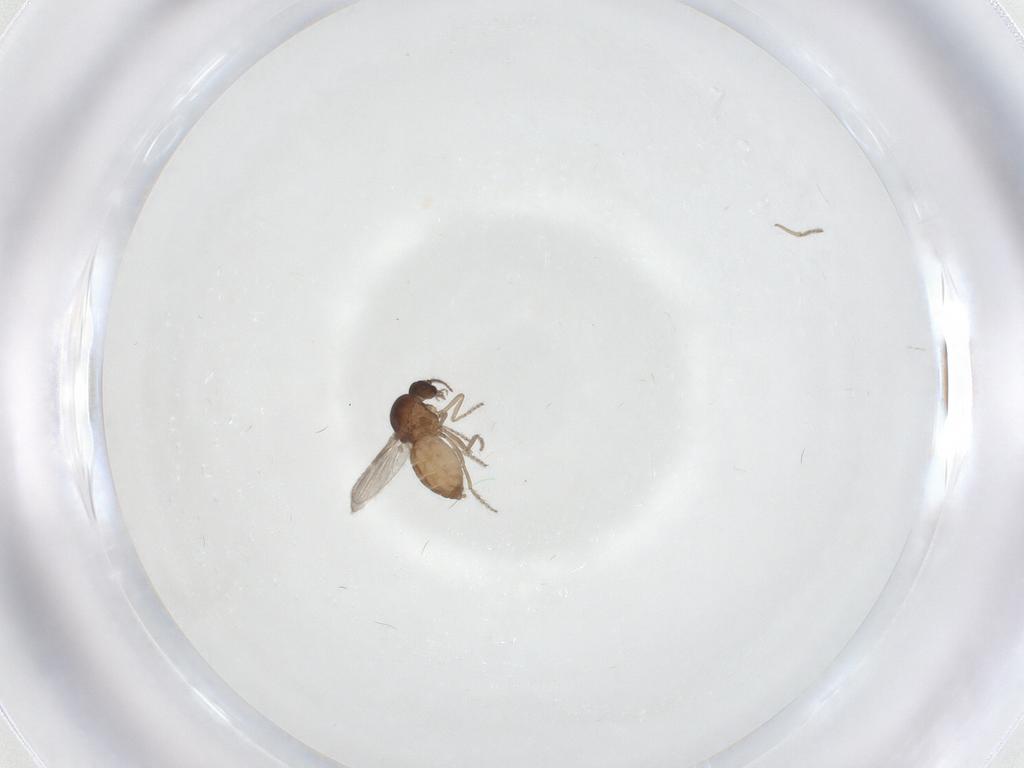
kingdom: Animalia
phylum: Arthropoda
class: Insecta
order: Diptera
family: Ceratopogonidae
